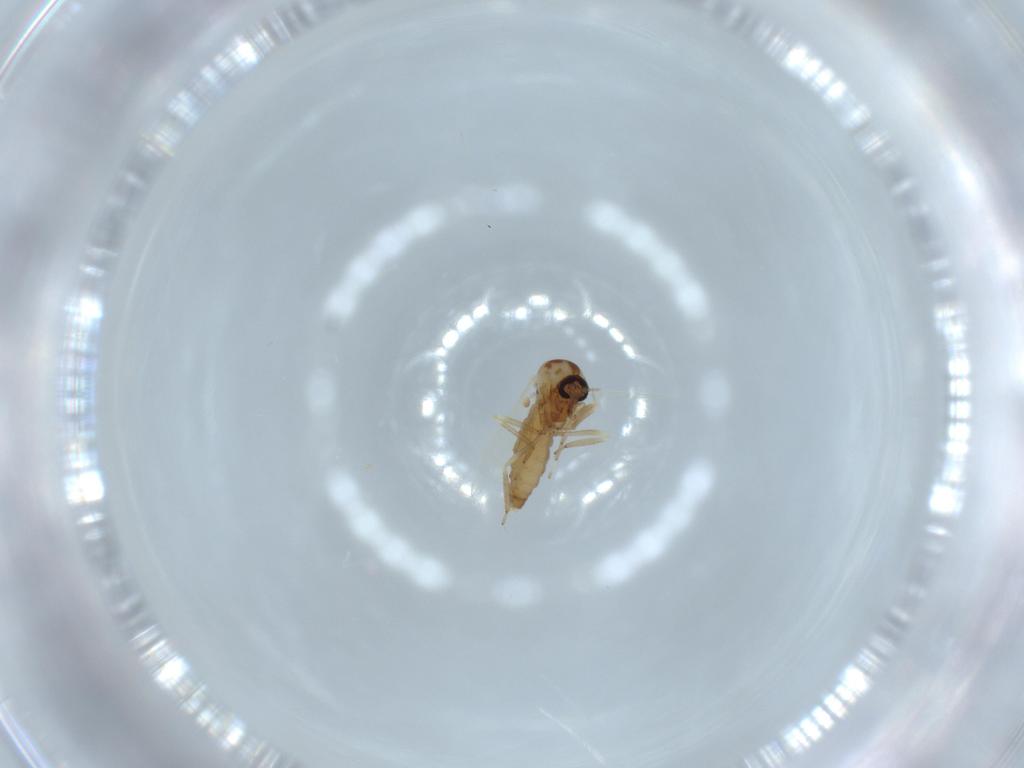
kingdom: Animalia
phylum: Arthropoda
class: Insecta
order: Diptera
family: Ceratopogonidae
